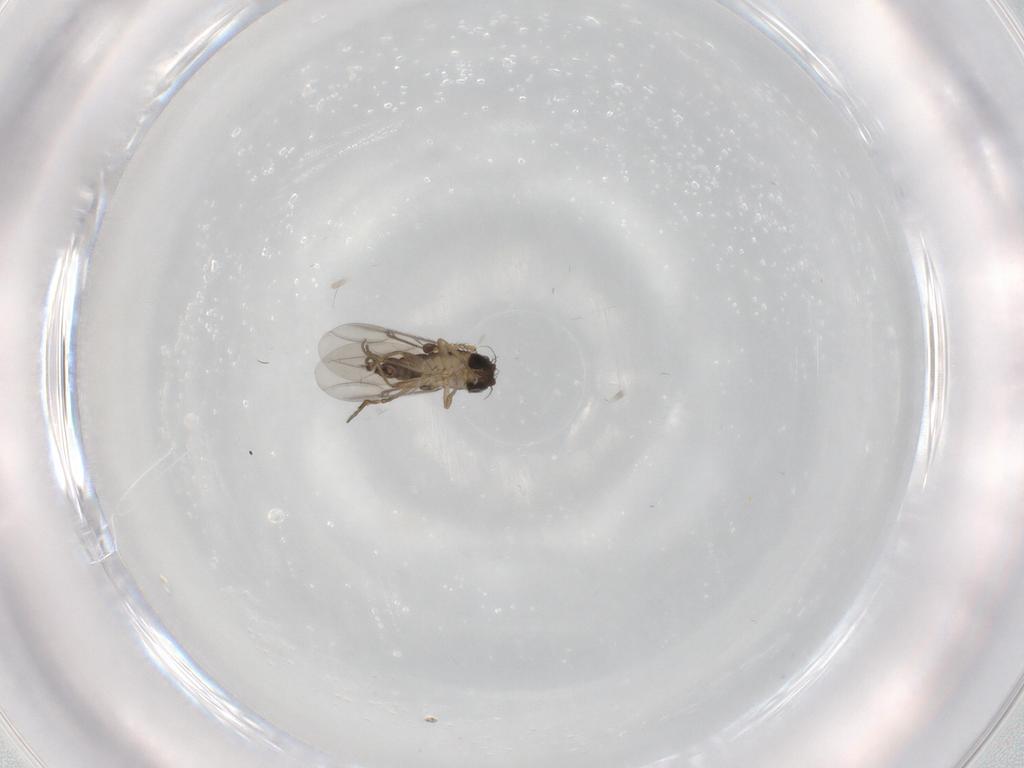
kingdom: Animalia
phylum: Arthropoda
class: Insecta
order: Diptera
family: Phoridae
